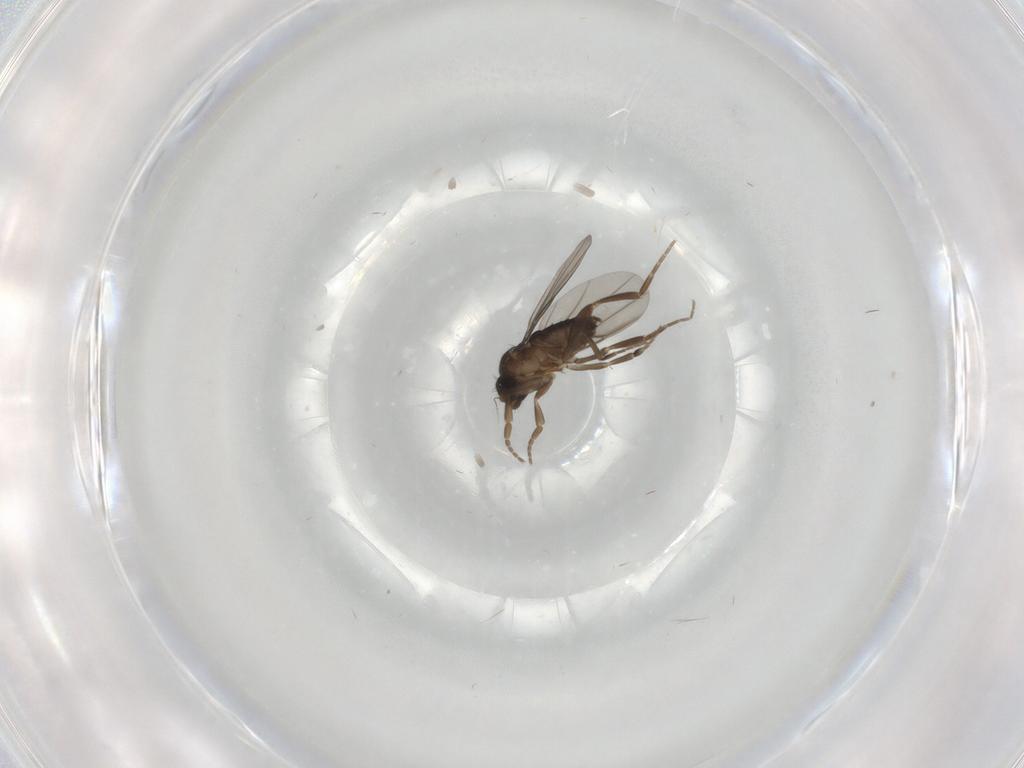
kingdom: Animalia
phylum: Arthropoda
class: Insecta
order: Diptera
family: Phoridae
